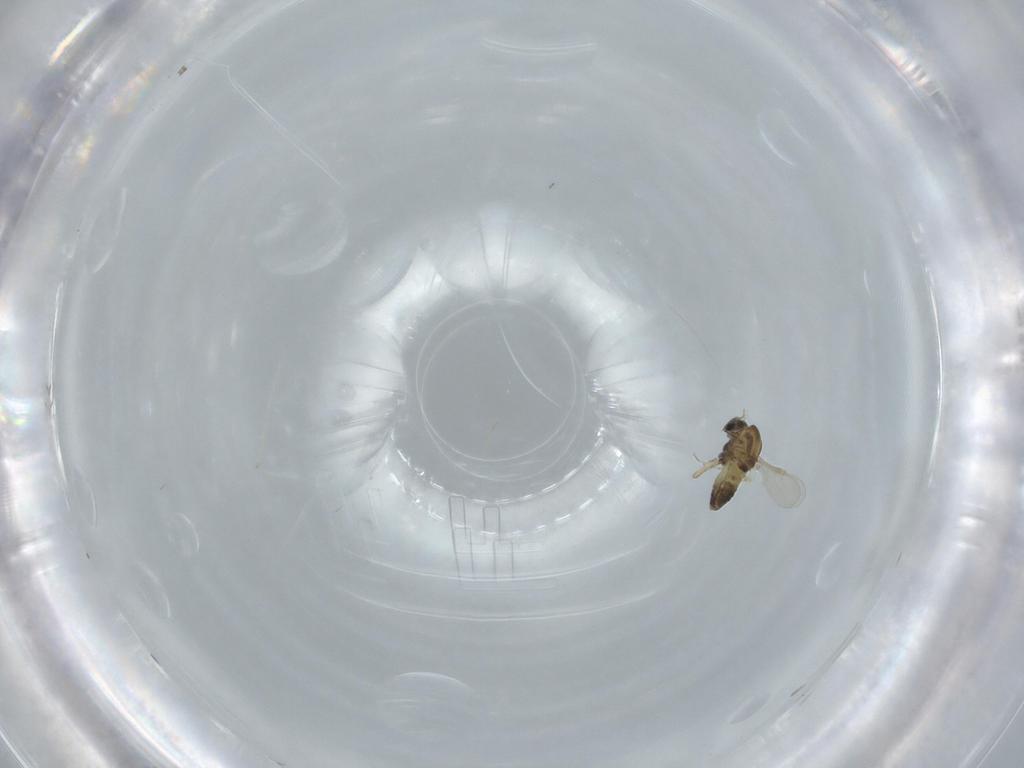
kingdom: Animalia
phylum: Arthropoda
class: Insecta
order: Diptera
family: Chironomidae
